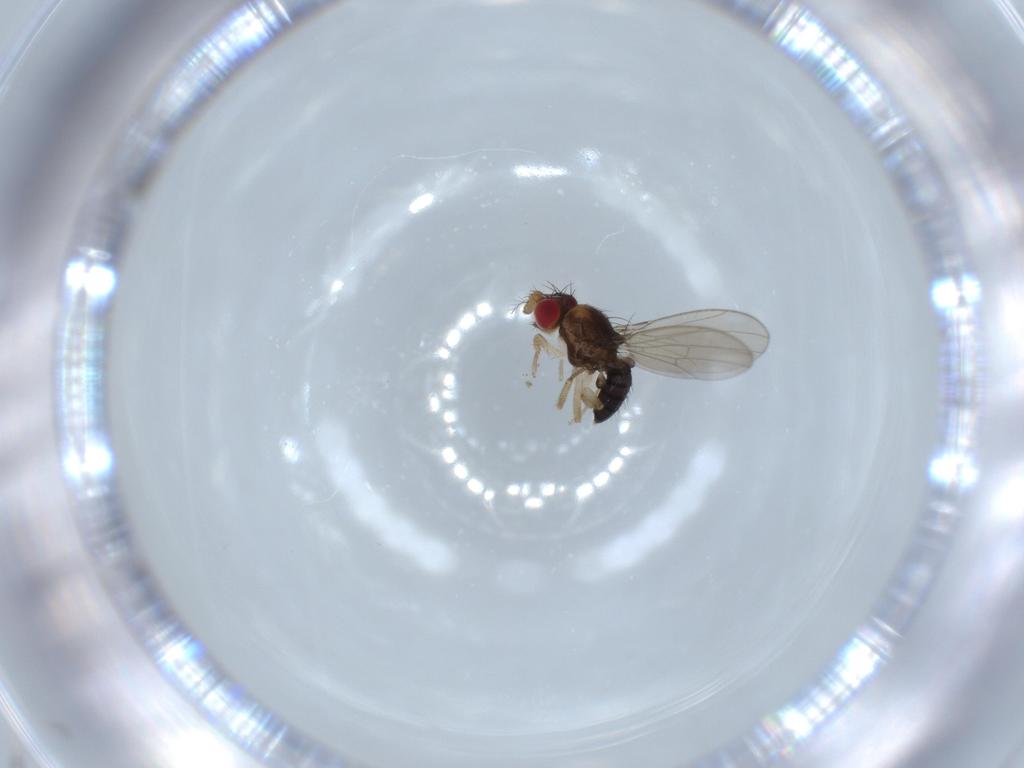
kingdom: Animalia
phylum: Arthropoda
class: Insecta
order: Diptera
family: Drosophilidae
